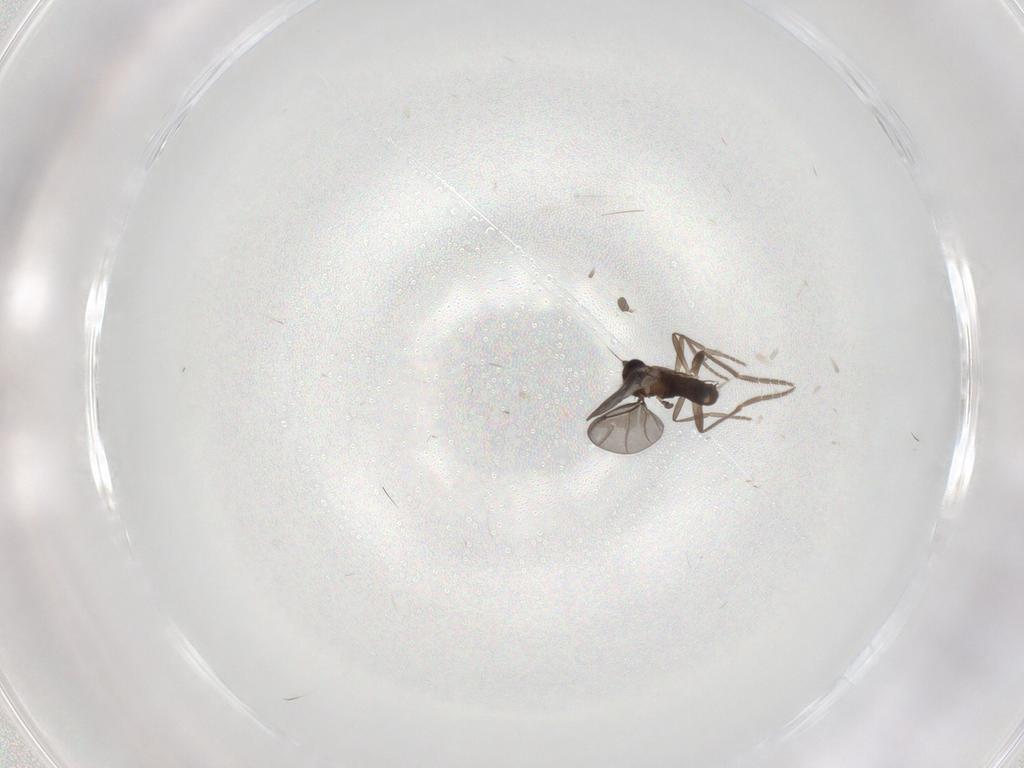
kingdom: Animalia
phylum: Arthropoda
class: Insecta
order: Diptera
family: Phoridae
